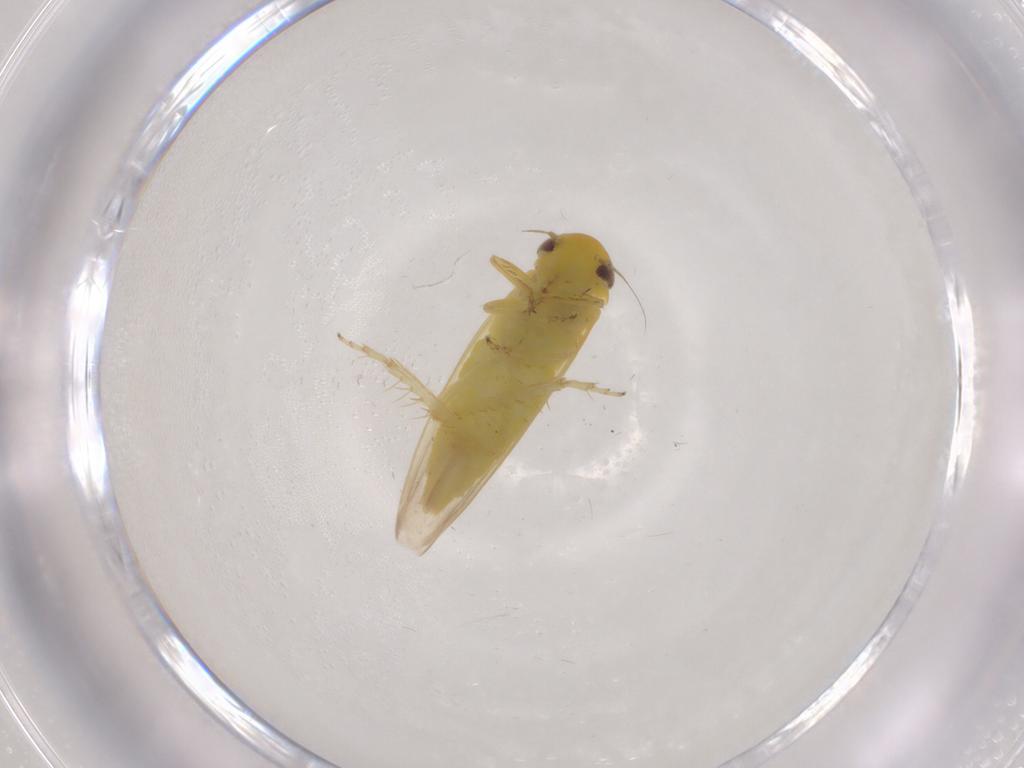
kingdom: Animalia
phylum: Arthropoda
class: Insecta
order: Hemiptera
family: Cicadellidae
